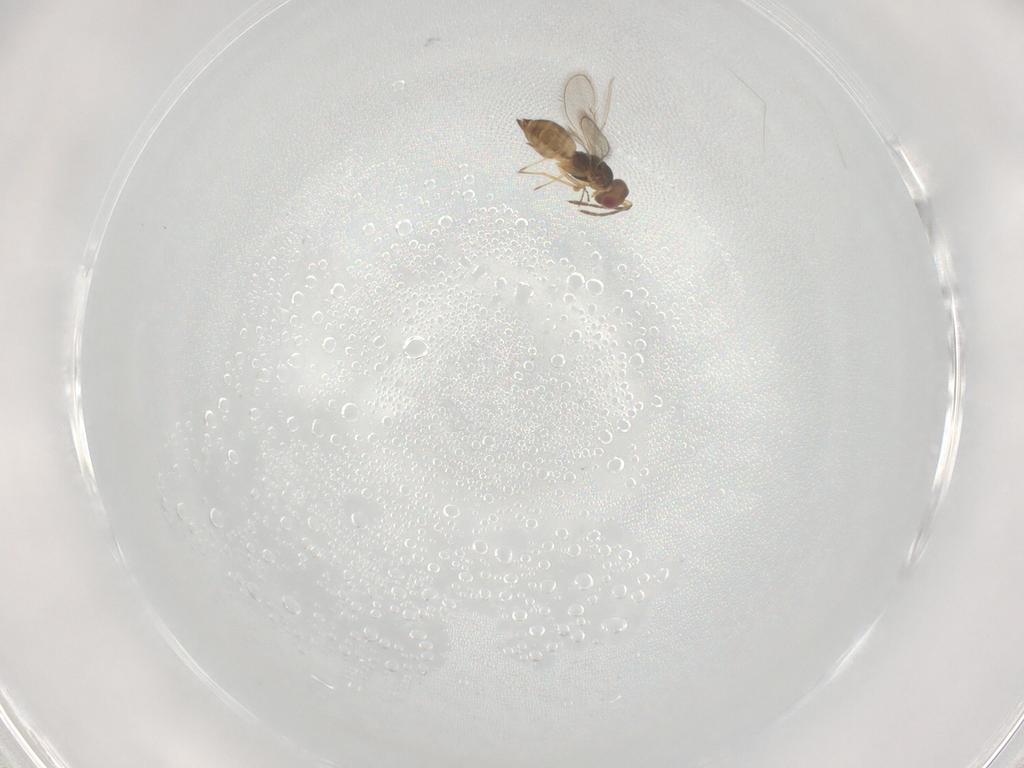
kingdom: Animalia
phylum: Arthropoda
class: Insecta
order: Hymenoptera
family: Eulophidae
